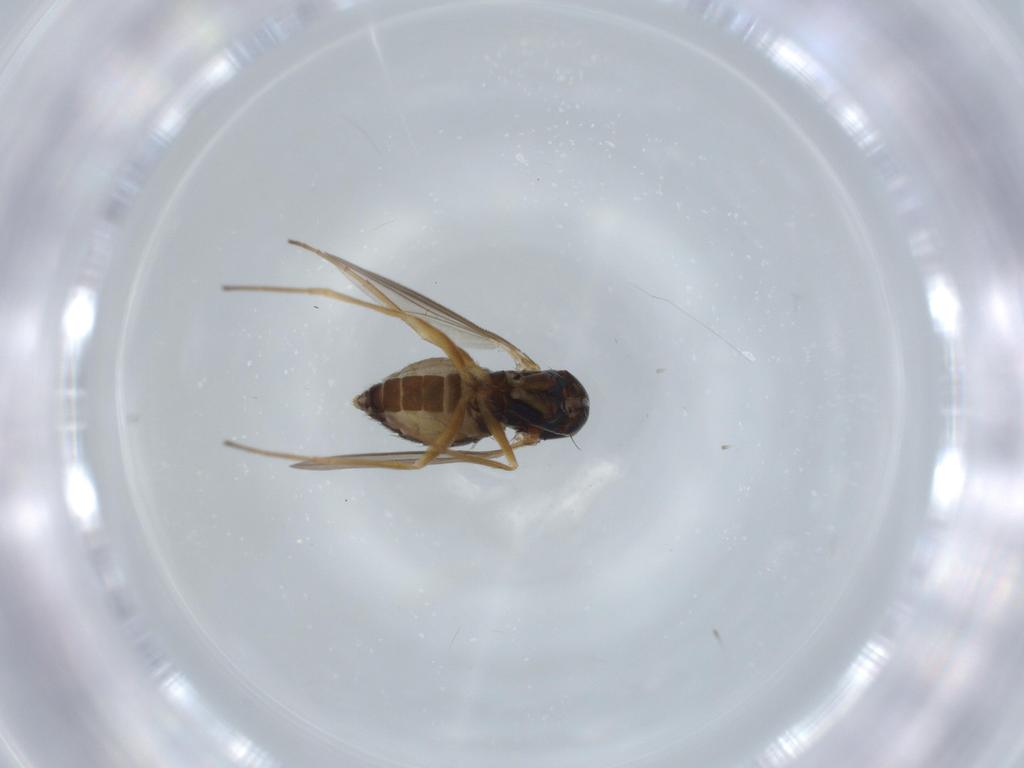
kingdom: Animalia
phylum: Arthropoda
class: Insecta
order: Diptera
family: Dolichopodidae
